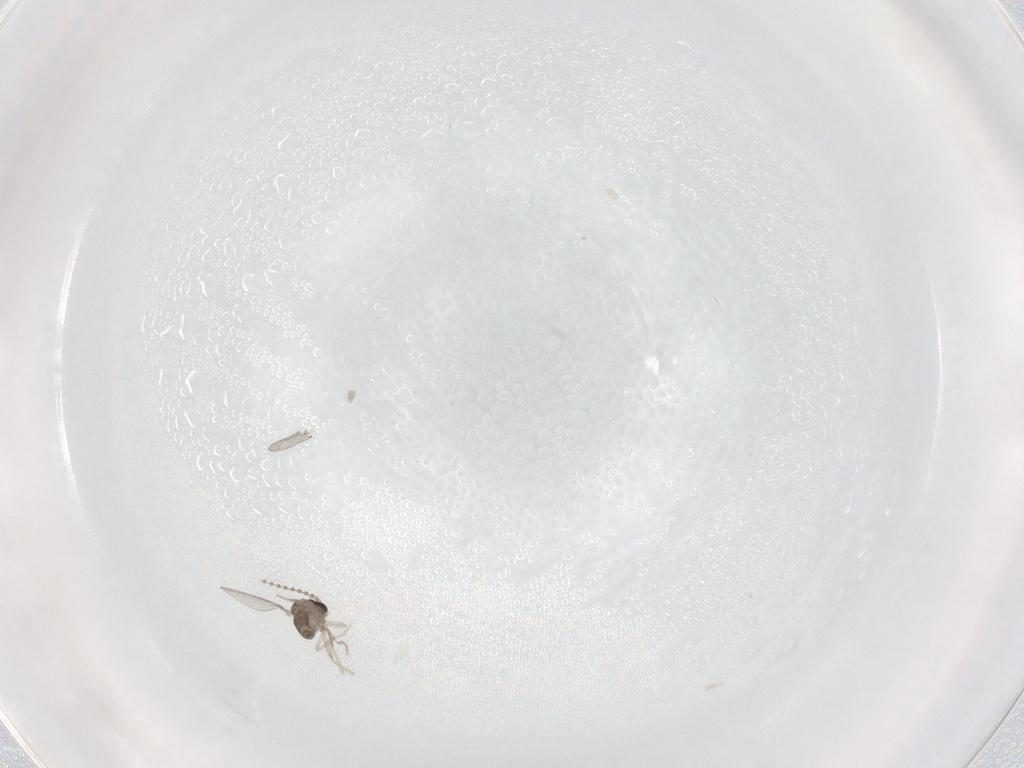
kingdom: Animalia
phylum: Arthropoda
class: Insecta
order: Diptera
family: Cecidomyiidae
